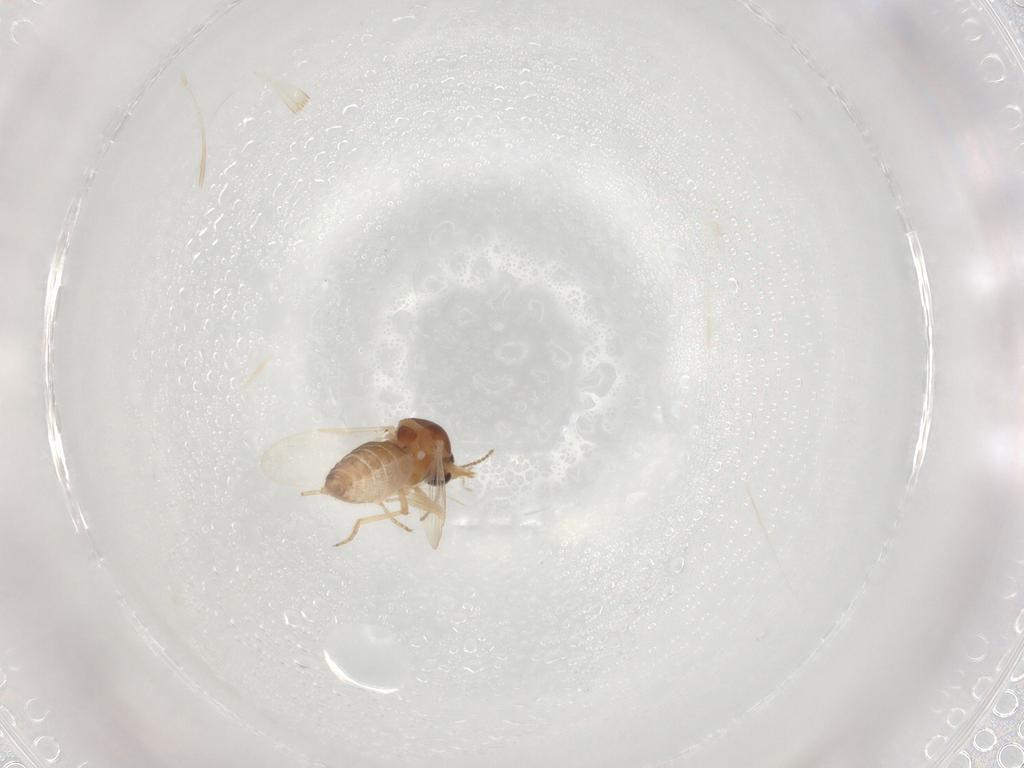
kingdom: Animalia
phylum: Arthropoda
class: Insecta
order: Diptera
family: Ceratopogonidae
